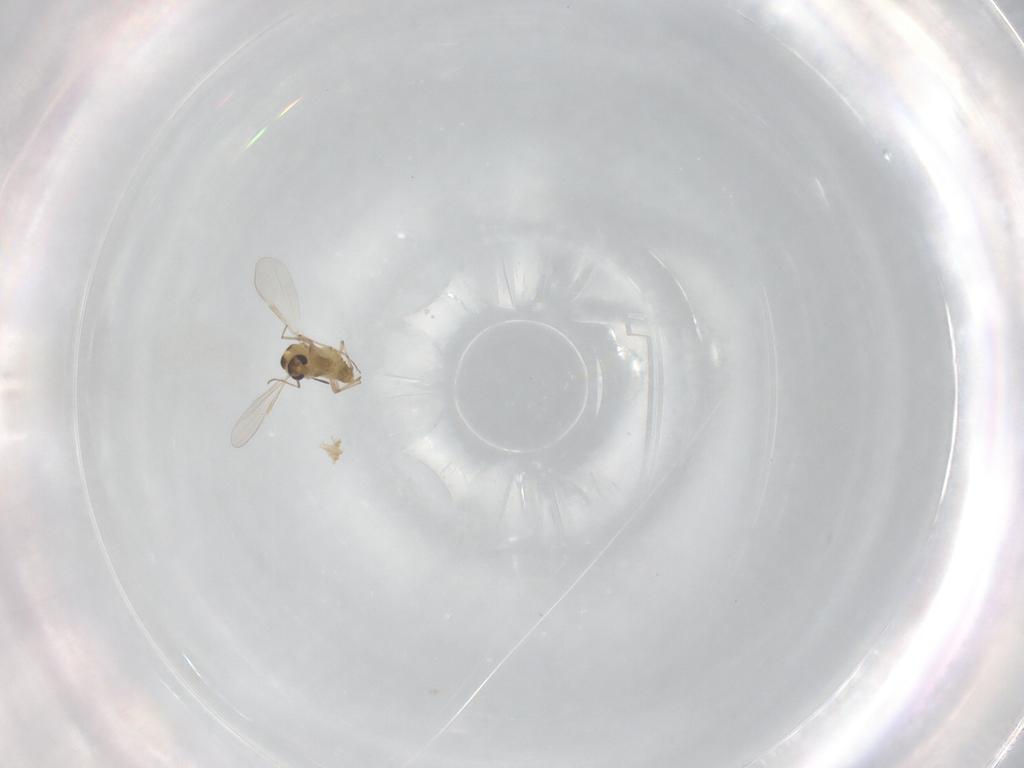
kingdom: Animalia
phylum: Arthropoda
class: Insecta
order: Diptera
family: Chironomidae
